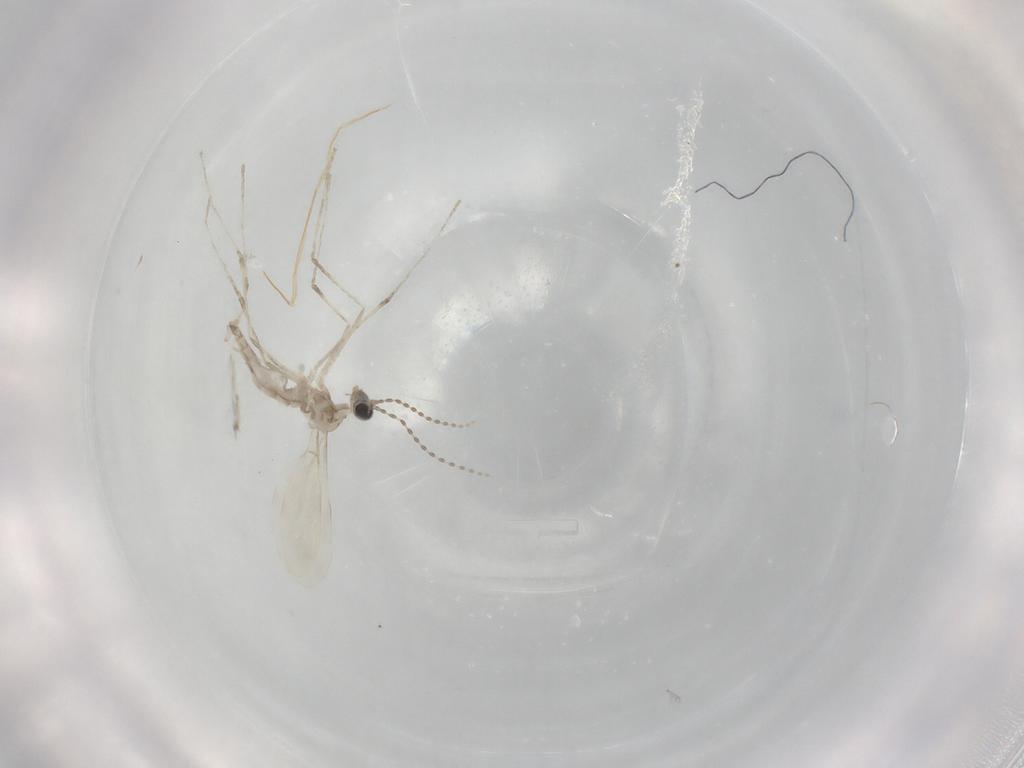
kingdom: Animalia
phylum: Arthropoda
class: Insecta
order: Diptera
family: Cecidomyiidae
